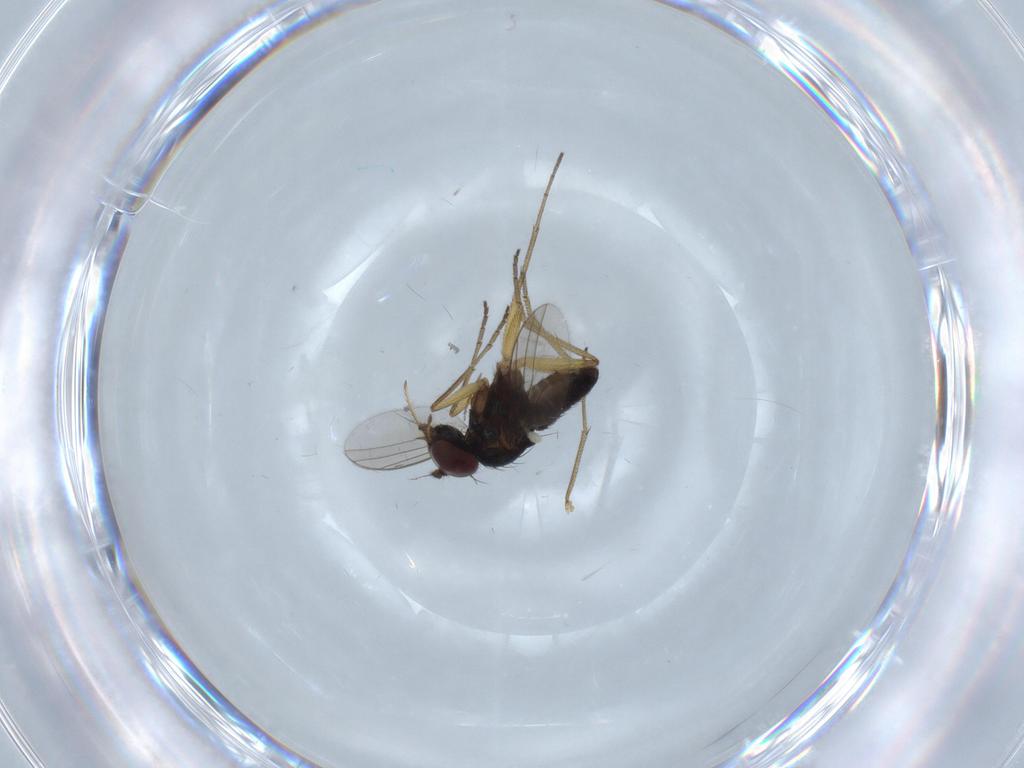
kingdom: Animalia
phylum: Arthropoda
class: Insecta
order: Diptera
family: Dolichopodidae
